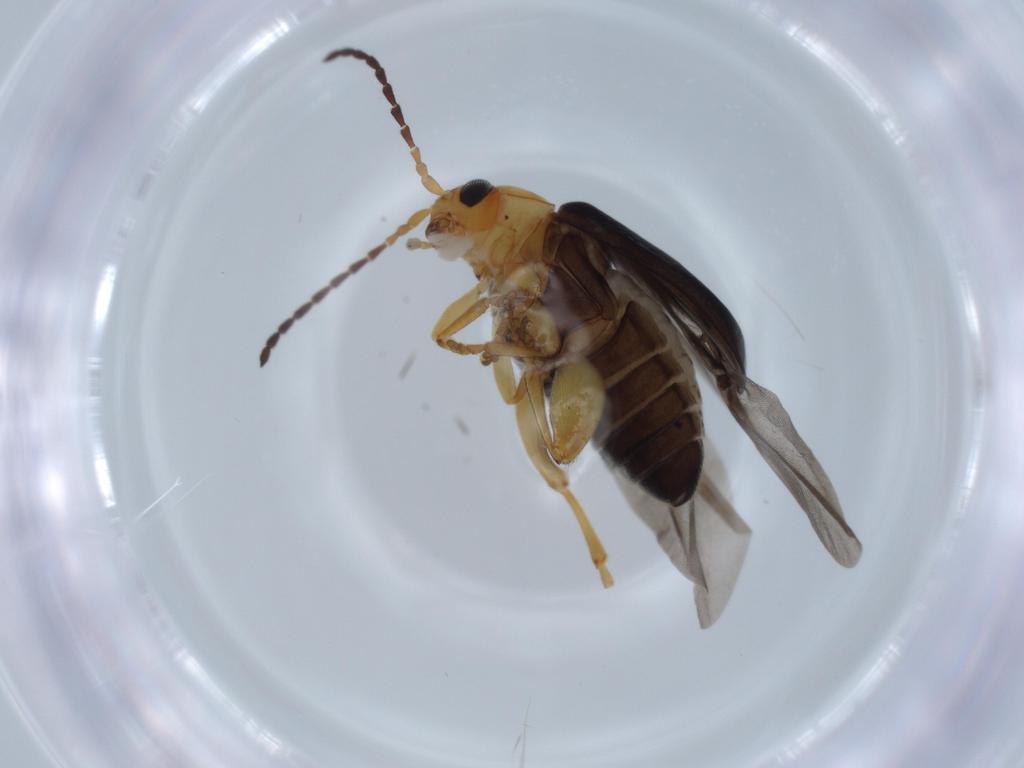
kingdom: Animalia
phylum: Arthropoda
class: Insecta
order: Coleoptera
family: Chrysomelidae
